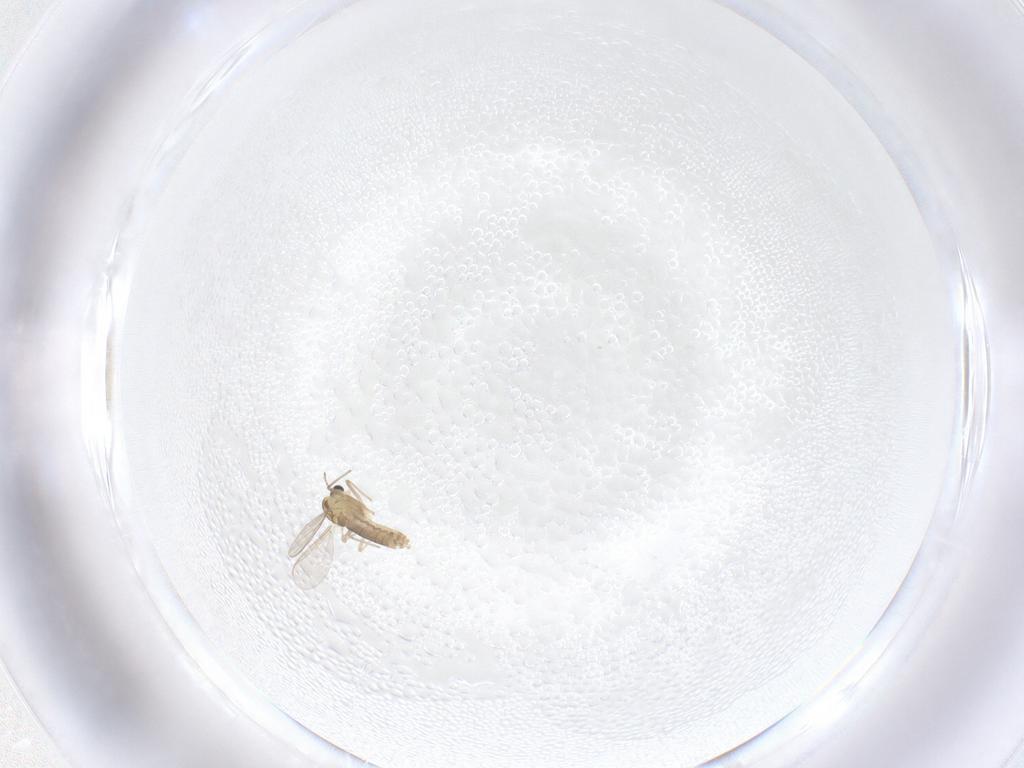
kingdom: Animalia
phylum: Arthropoda
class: Insecta
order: Diptera
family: Chironomidae
